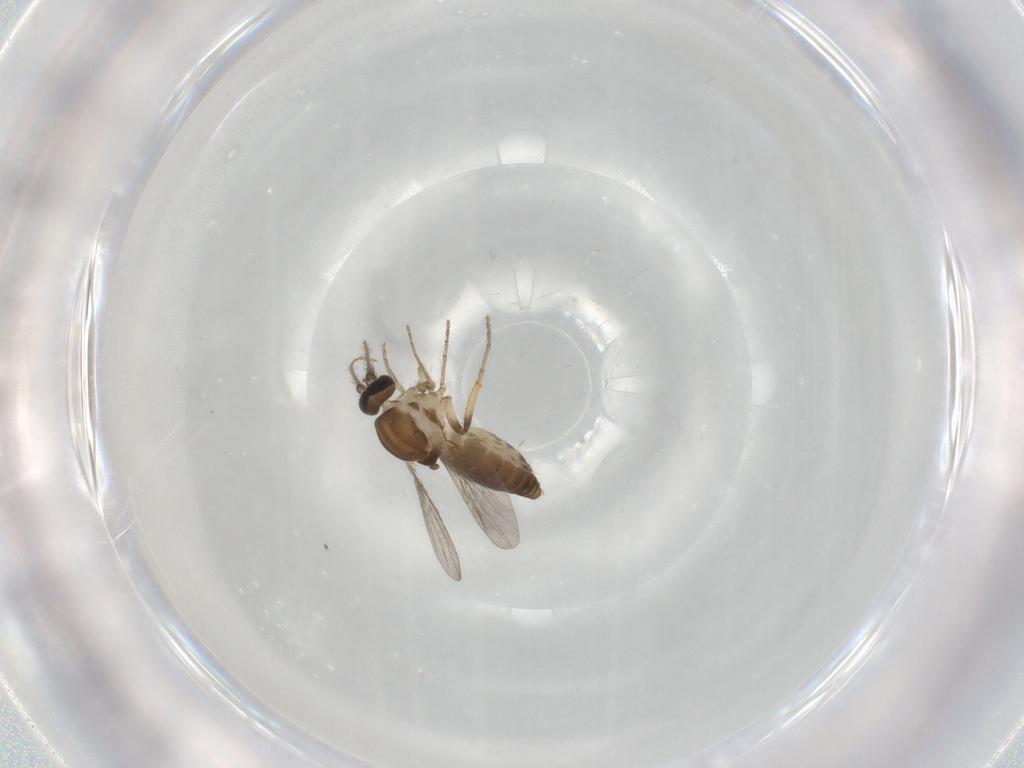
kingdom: Animalia
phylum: Arthropoda
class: Insecta
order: Diptera
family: Ceratopogonidae
